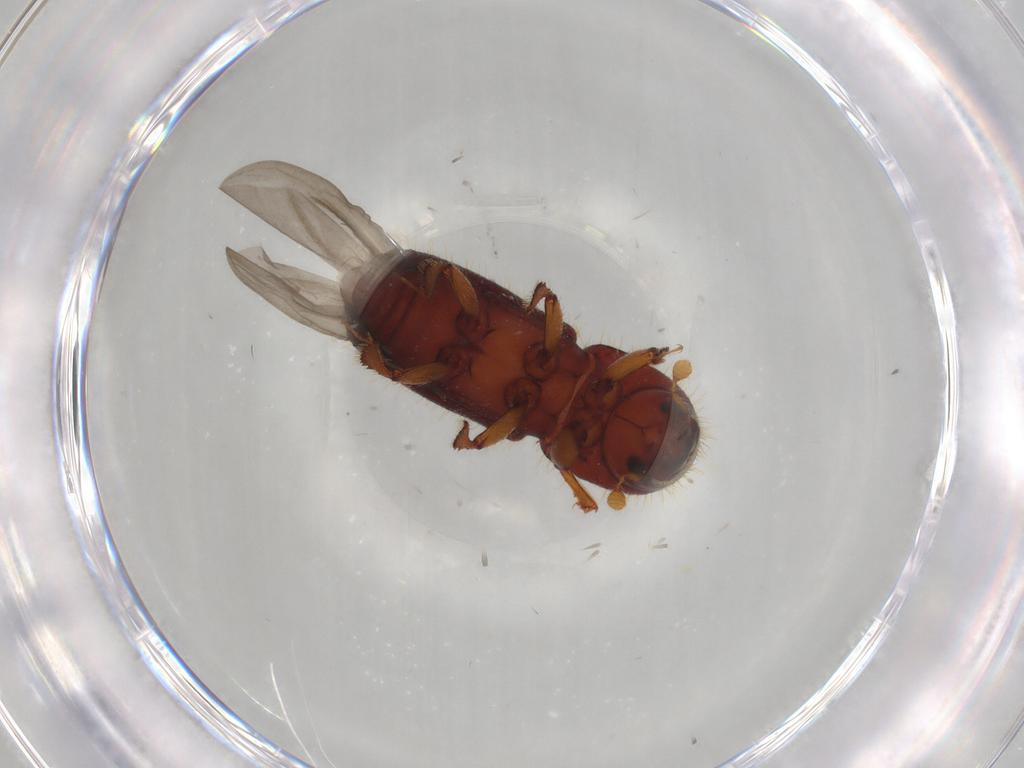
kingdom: Animalia
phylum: Arthropoda
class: Insecta
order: Coleoptera
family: Curculionidae
